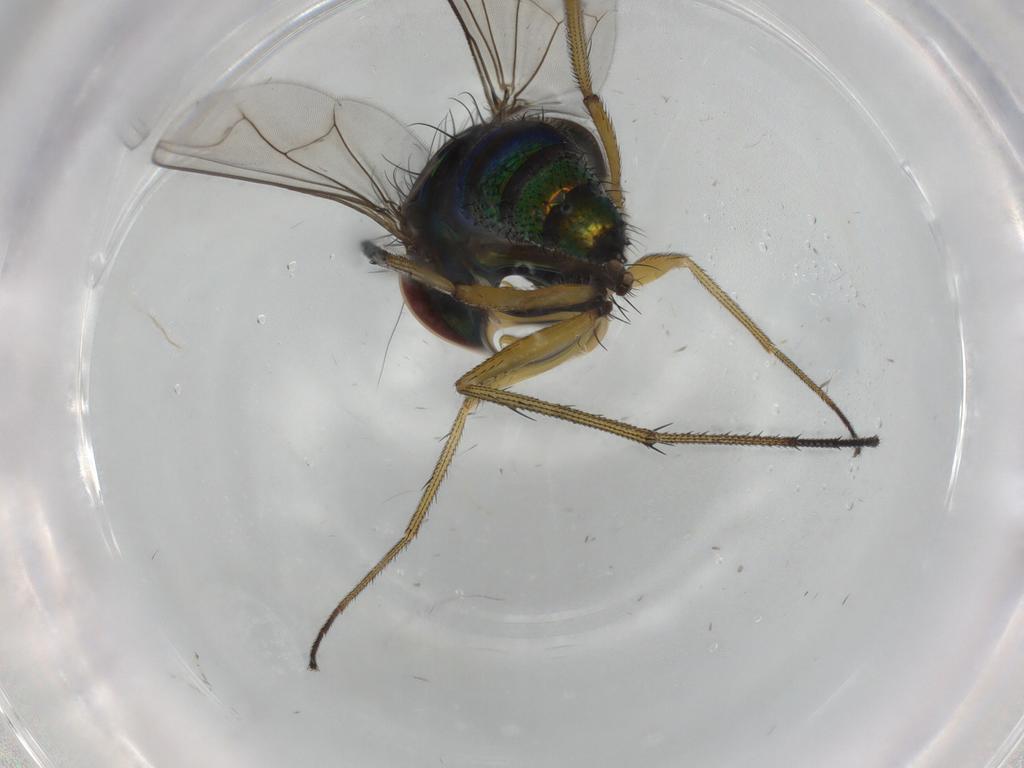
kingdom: Animalia
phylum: Arthropoda
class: Insecta
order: Diptera
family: Dolichopodidae
